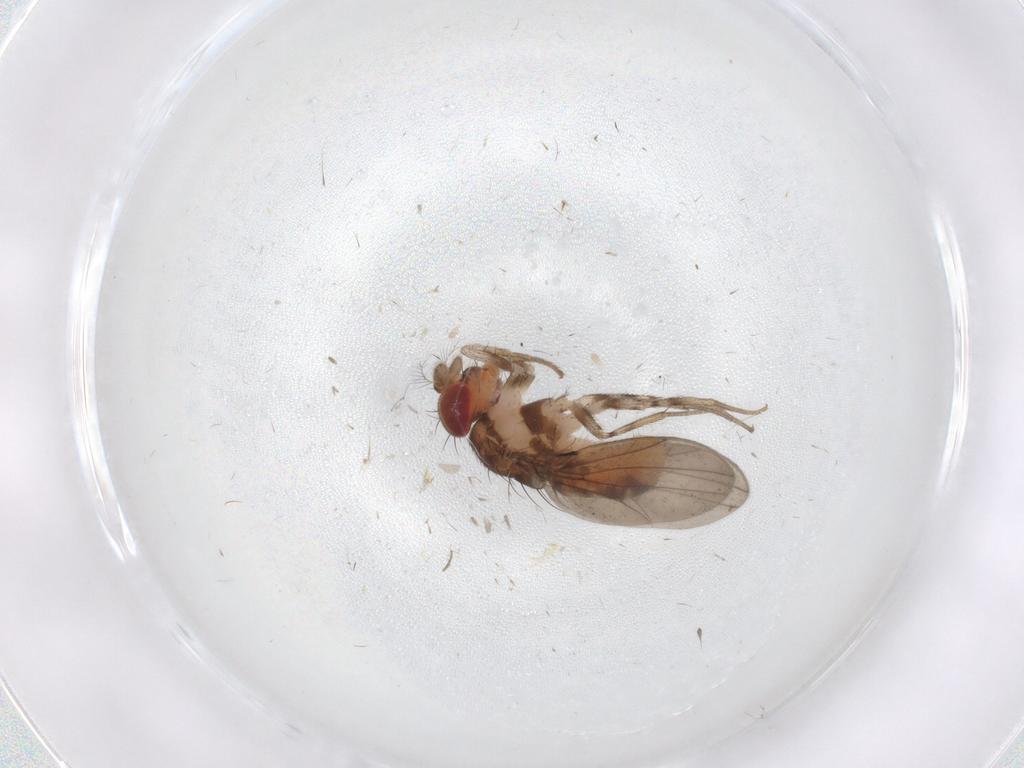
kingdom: Animalia
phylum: Arthropoda
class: Insecta
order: Diptera
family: Drosophilidae
